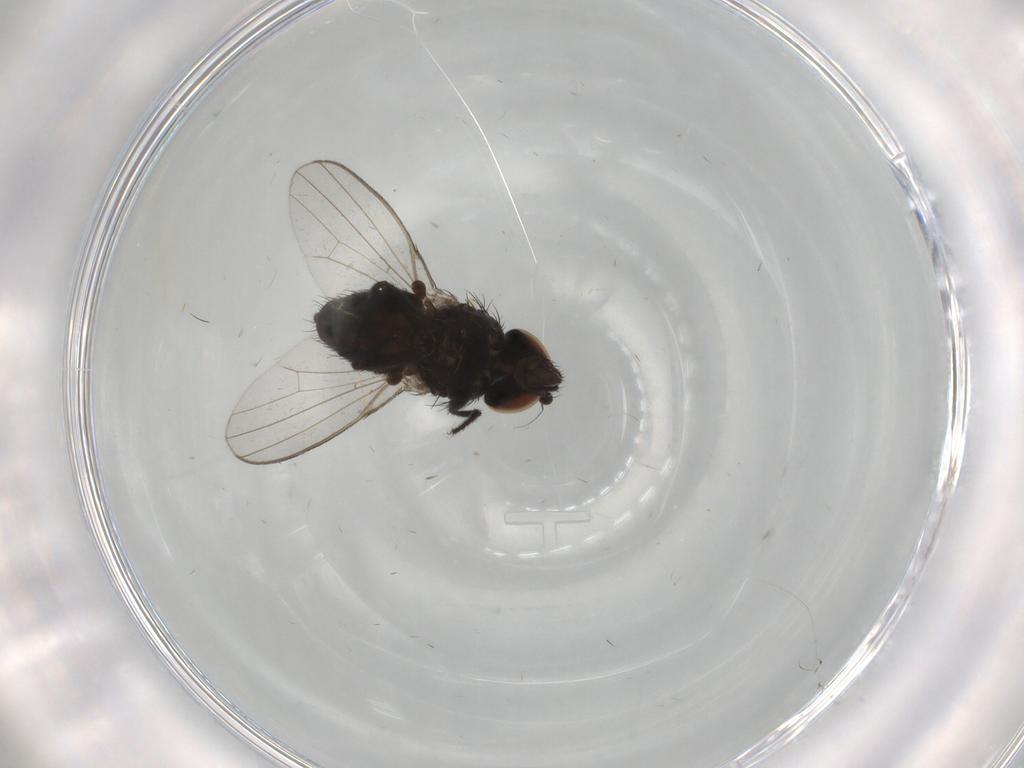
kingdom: Animalia
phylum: Arthropoda
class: Insecta
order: Diptera
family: Milichiidae
